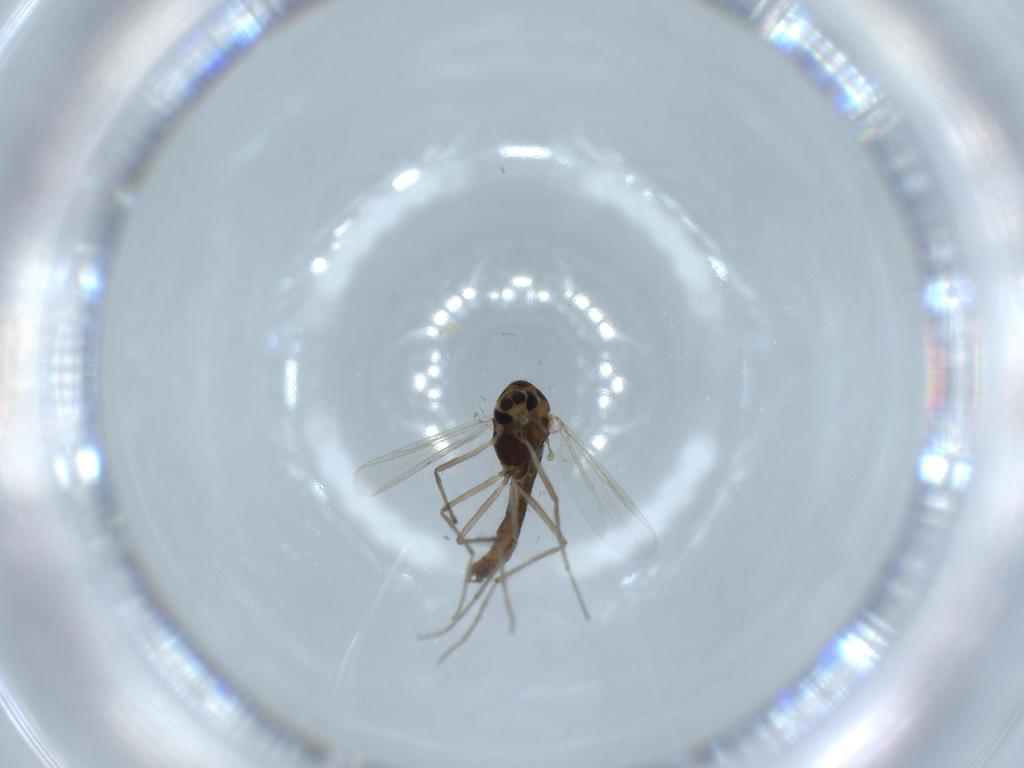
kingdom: Animalia
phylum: Arthropoda
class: Insecta
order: Diptera
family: Chironomidae
